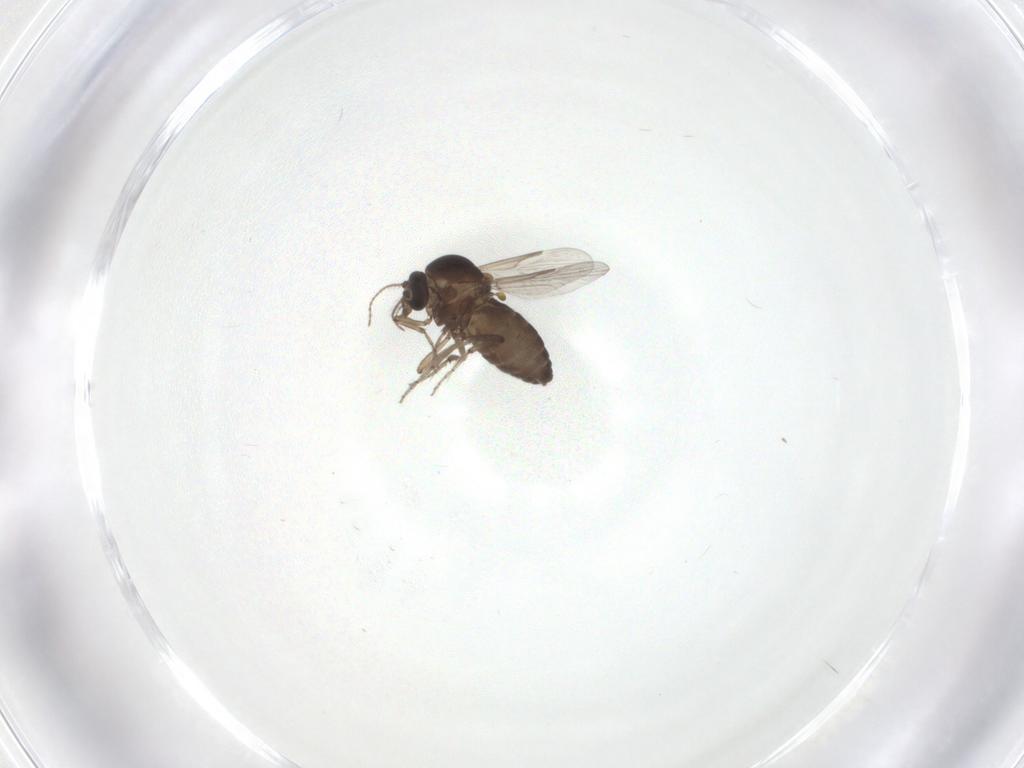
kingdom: Animalia
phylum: Arthropoda
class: Insecta
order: Diptera
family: Ceratopogonidae
